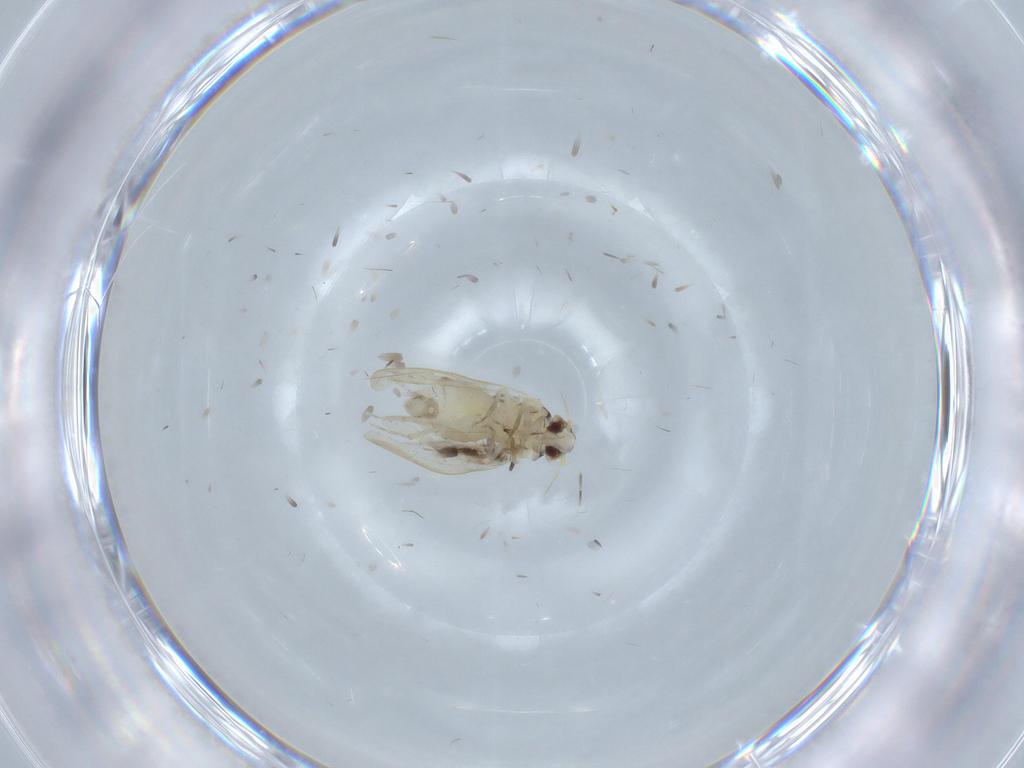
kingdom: Animalia
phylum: Arthropoda
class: Insecta
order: Hemiptera
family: Aleyrodidae
